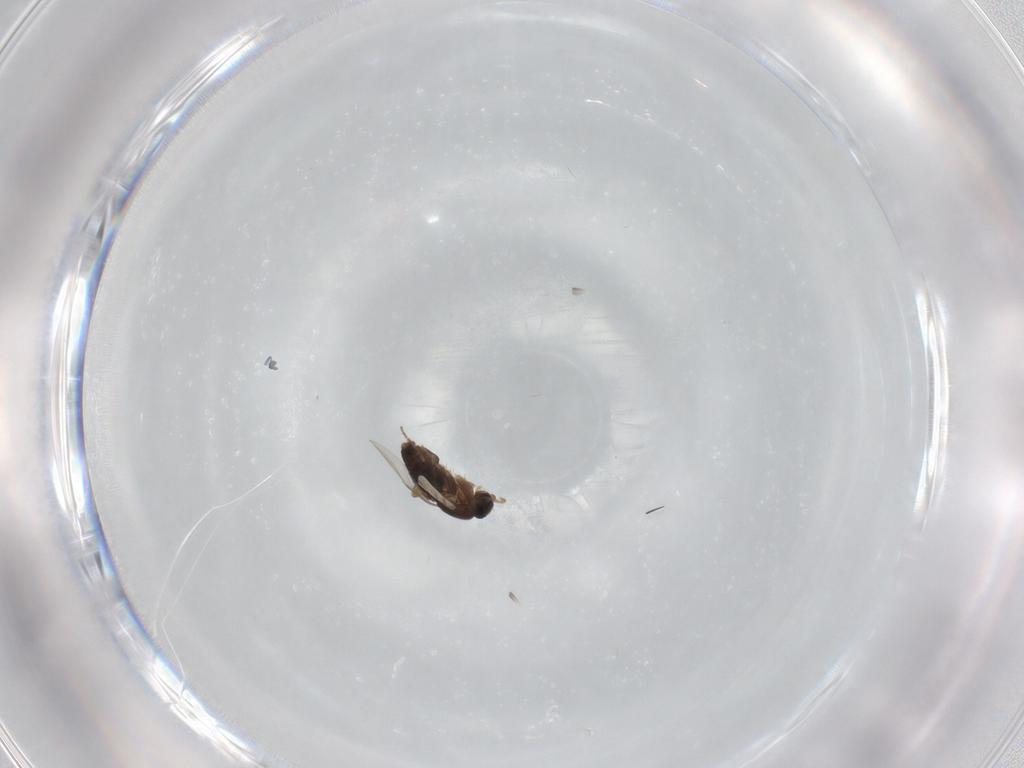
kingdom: Animalia
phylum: Arthropoda
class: Insecta
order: Diptera
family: Phoridae
